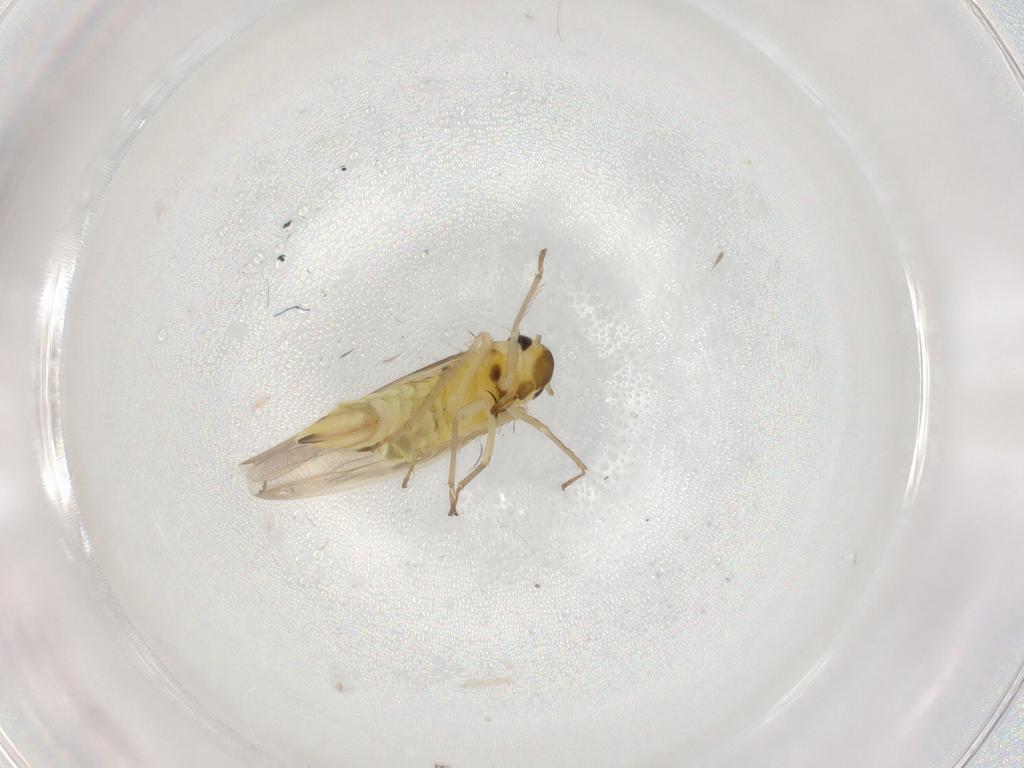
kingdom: Animalia
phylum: Arthropoda
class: Insecta
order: Hemiptera
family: Cicadellidae
